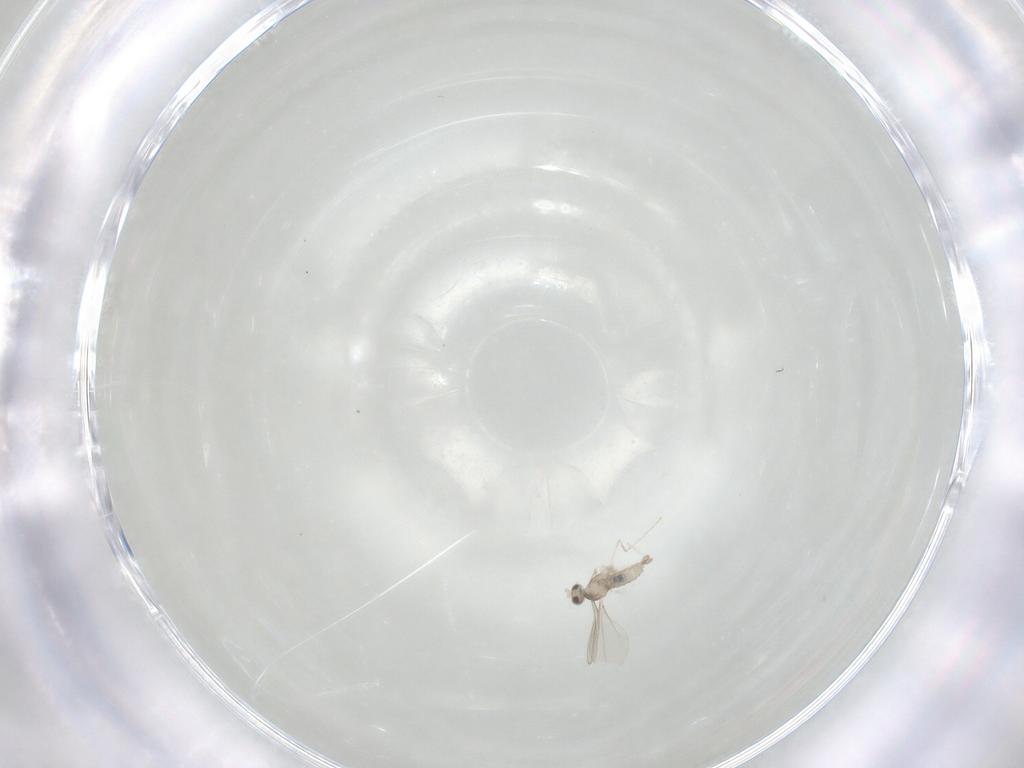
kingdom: Animalia
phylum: Arthropoda
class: Insecta
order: Diptera
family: Cecidomyiidae
